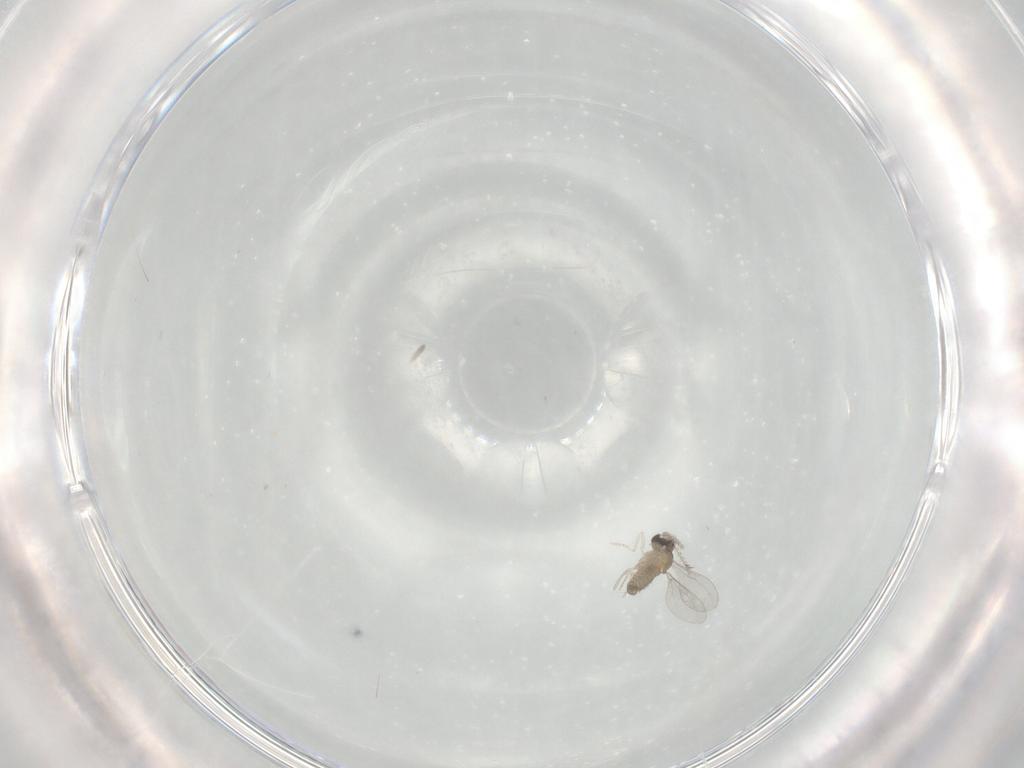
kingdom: Animalia
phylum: Arthropoda
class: Insecta
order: Diptera
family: Cecidomyiidae
